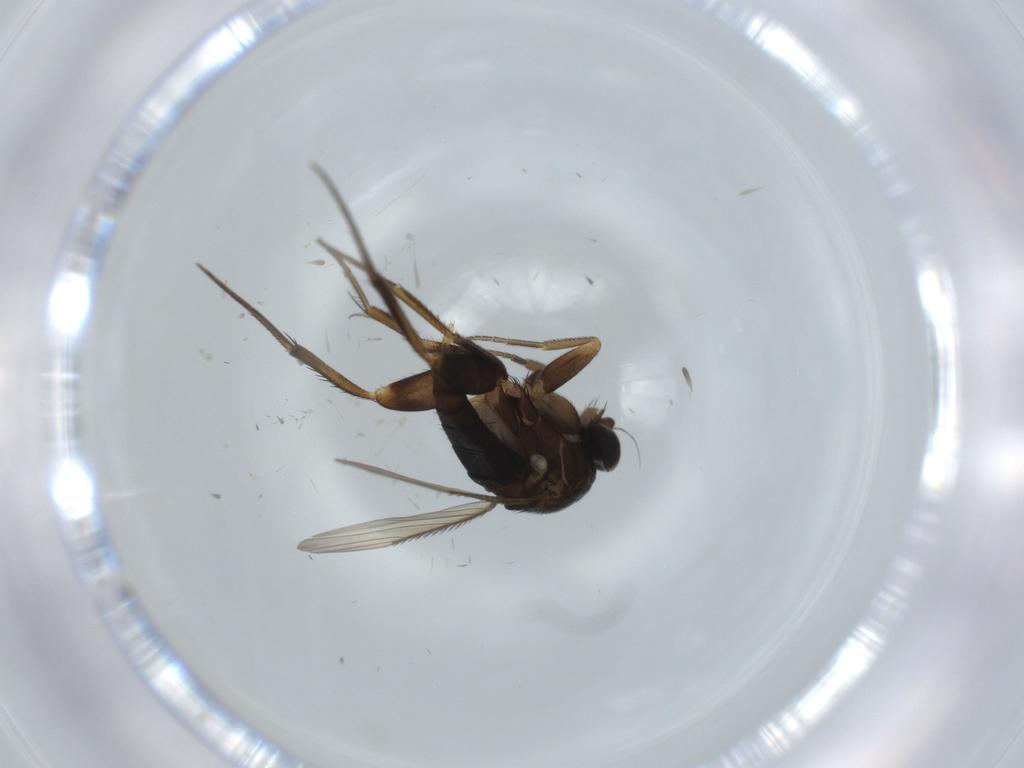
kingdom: Animalia
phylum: Arthropoda
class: Insecta
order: Diptera
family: Phoridae
